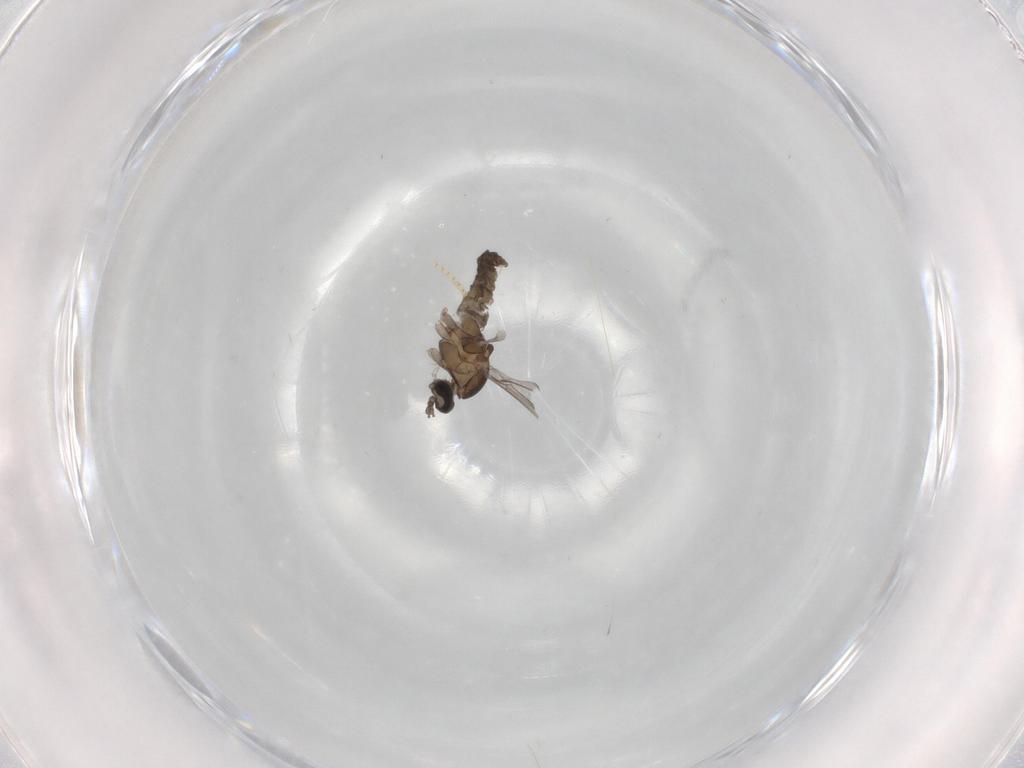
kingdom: Animalia
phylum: Arthropoda
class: Insecta
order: Diptera
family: Cecidomyiidae
